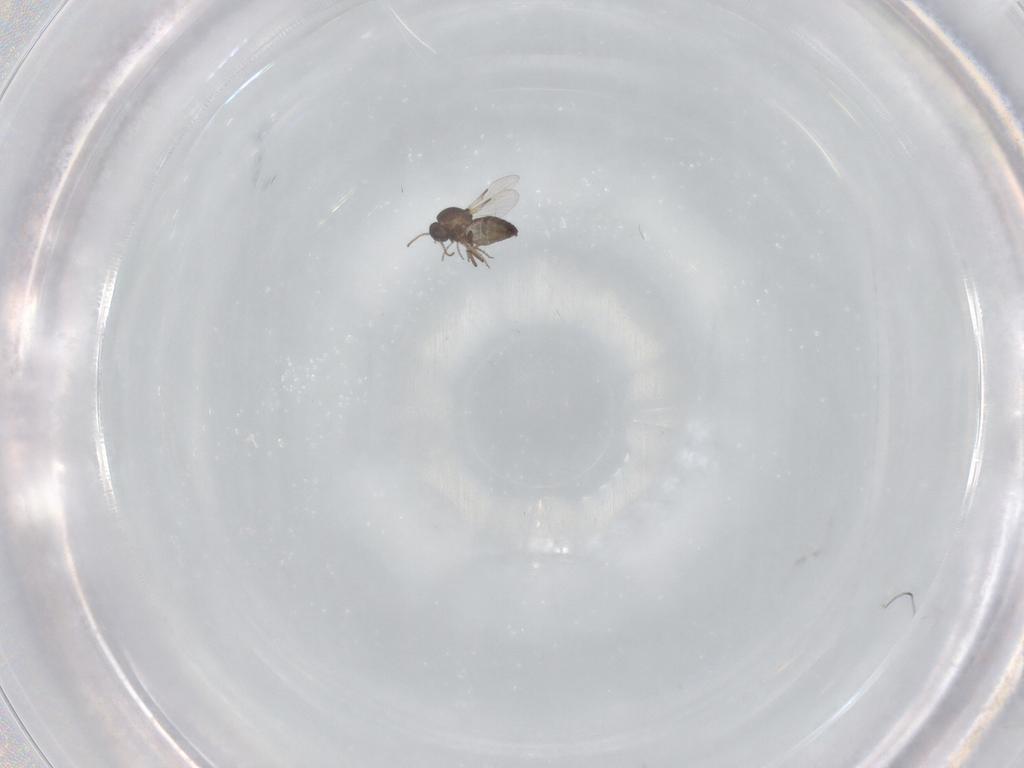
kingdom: Animalia
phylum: Arthropoda
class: Insecta
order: Diptera
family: Ceratopogonidae
